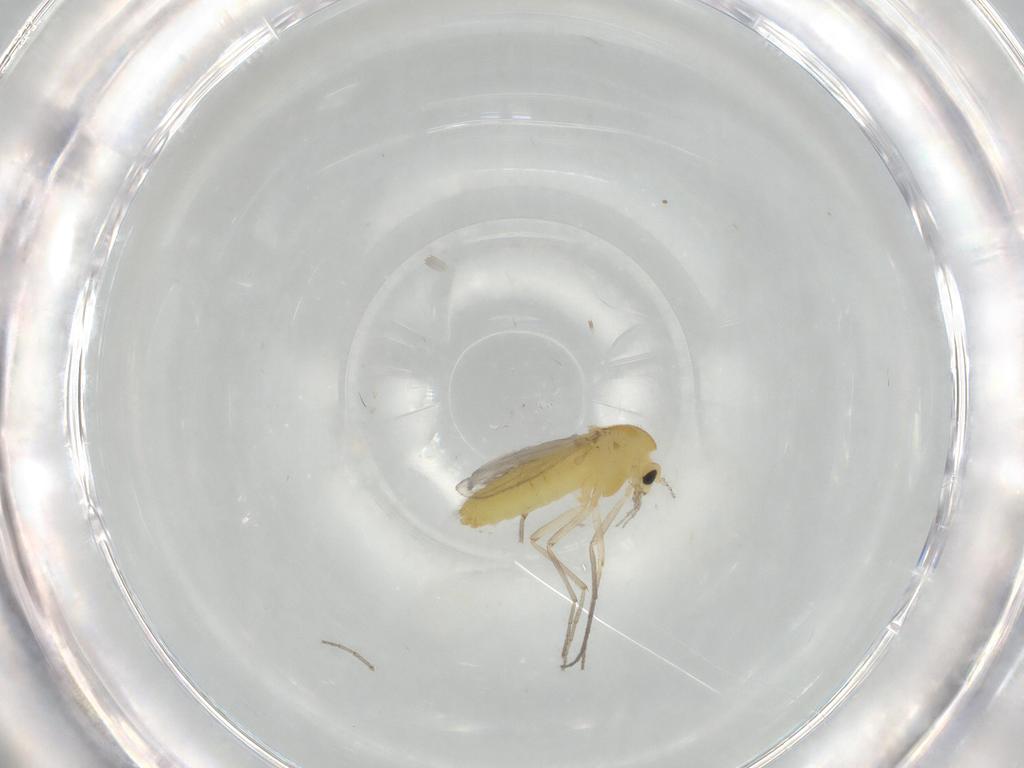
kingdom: Animalia
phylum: Arthropoda
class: Insecta
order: Diptera
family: Chironomidae
